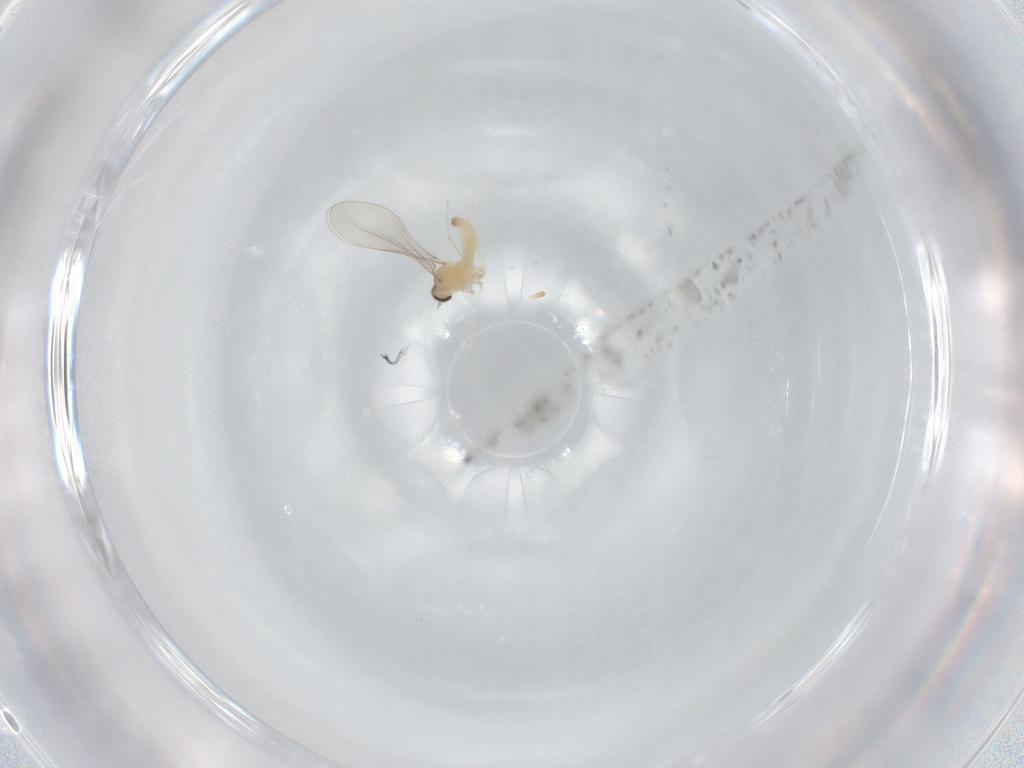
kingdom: Animalia
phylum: Arthropoda
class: Insecta
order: Diptera
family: Cecidomyiidae
